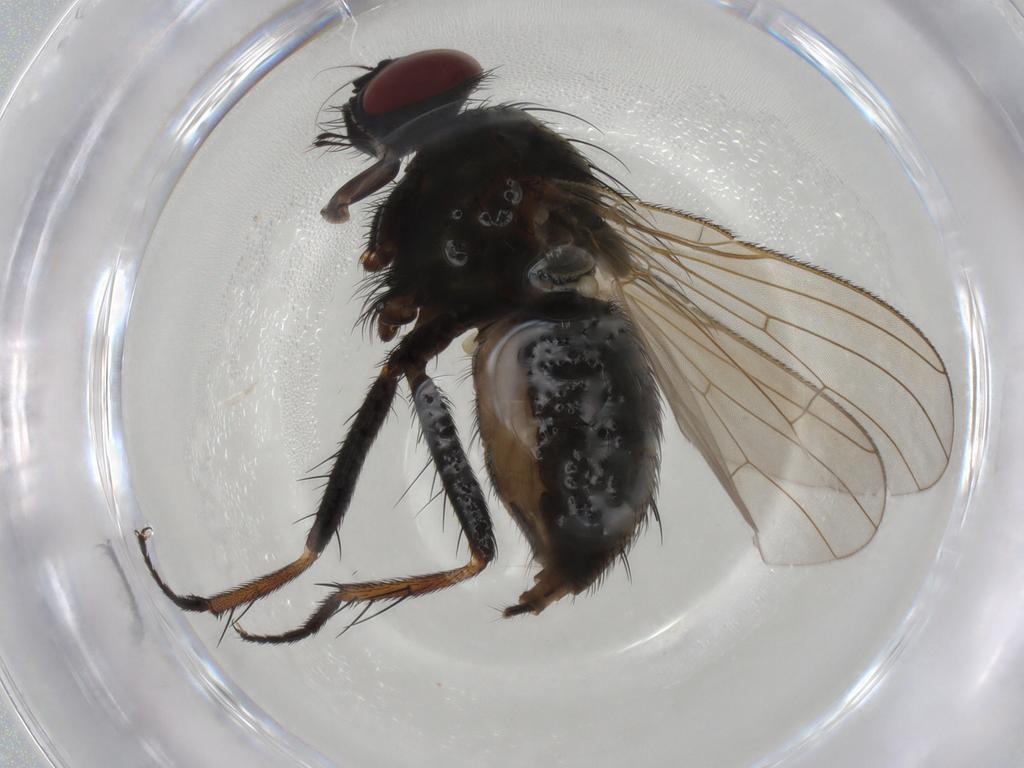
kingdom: Animalia
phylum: Arthropoda
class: Insecta
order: Diptera
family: Muscidae
